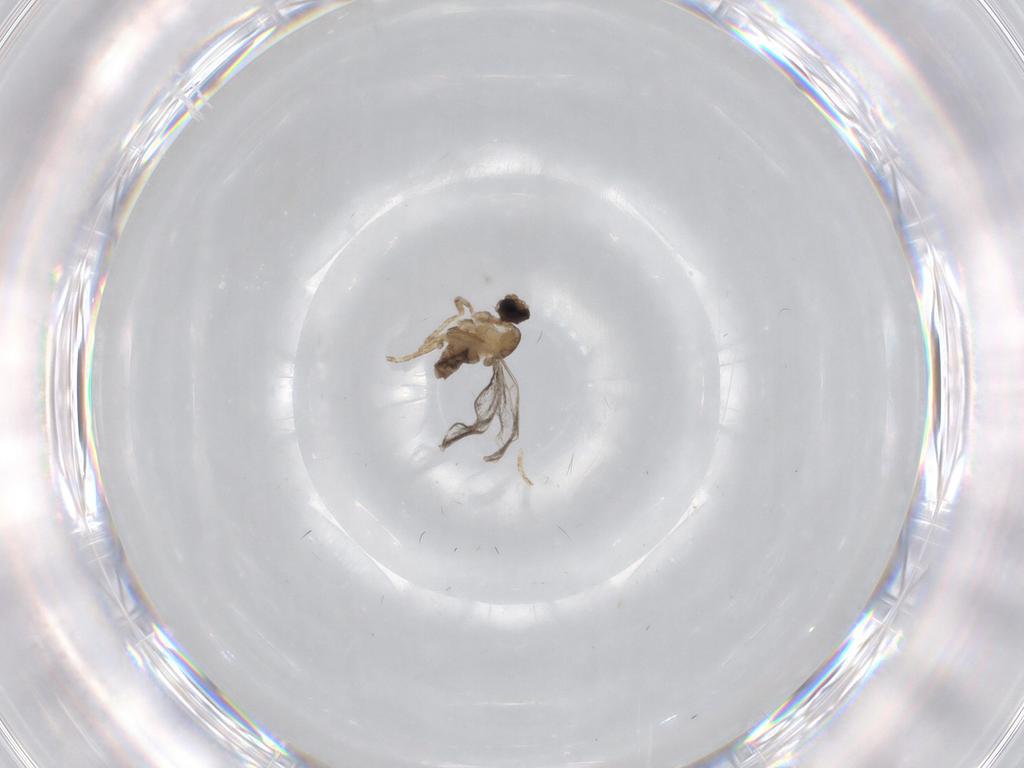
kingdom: Animalia
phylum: Arthropoda
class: Insecta
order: Diptera
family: Cecidomyiidae
